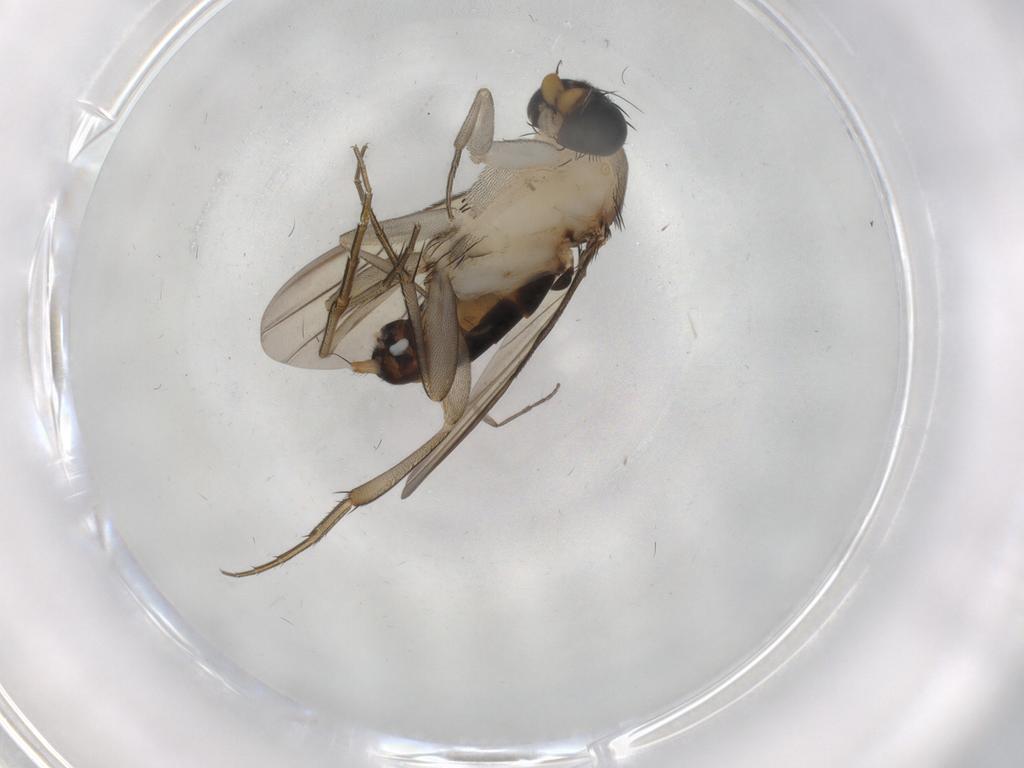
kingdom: Animalia
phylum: Arthropoda
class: Insecta
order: Diptera
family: Phoridae
